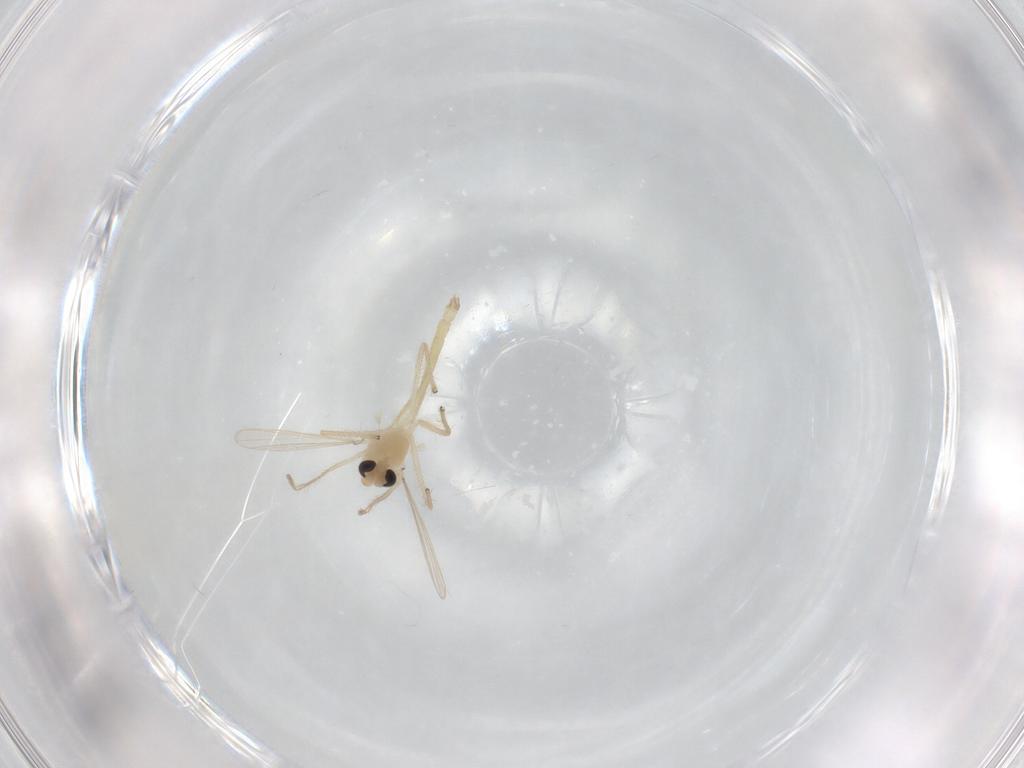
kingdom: Animalia
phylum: Arthropoda
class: Insecta
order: Diptera
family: Chironomidae
